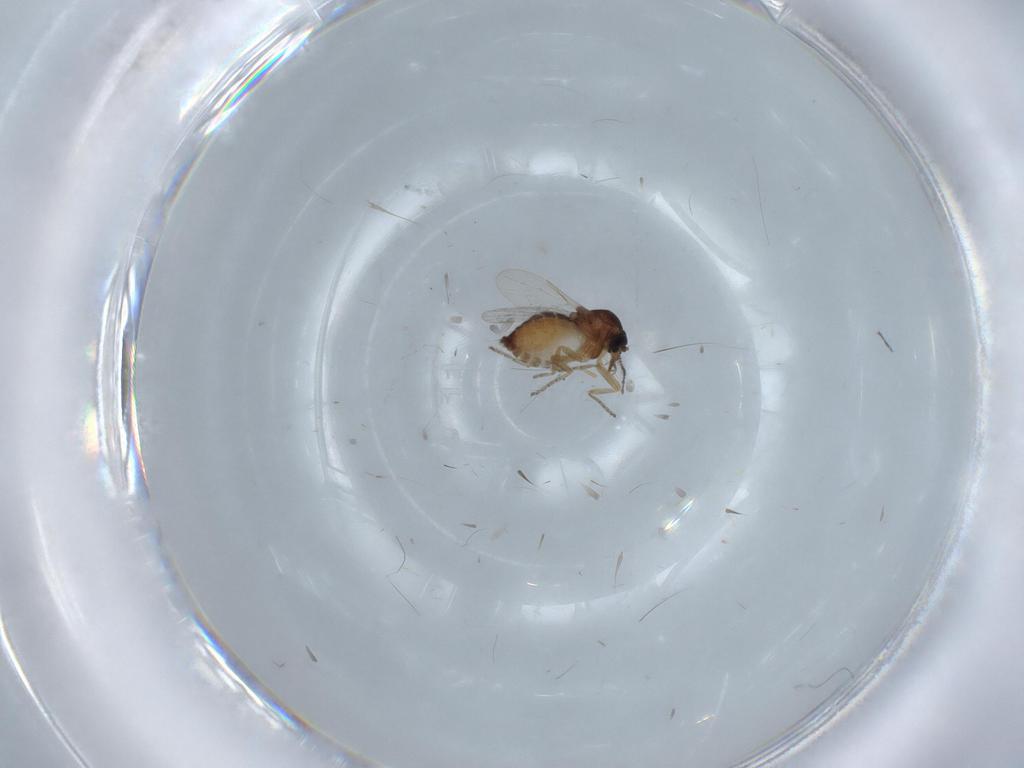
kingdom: Animalia
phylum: Arthropoda
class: Insecta
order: Diptera
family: Ceratopogonidae
